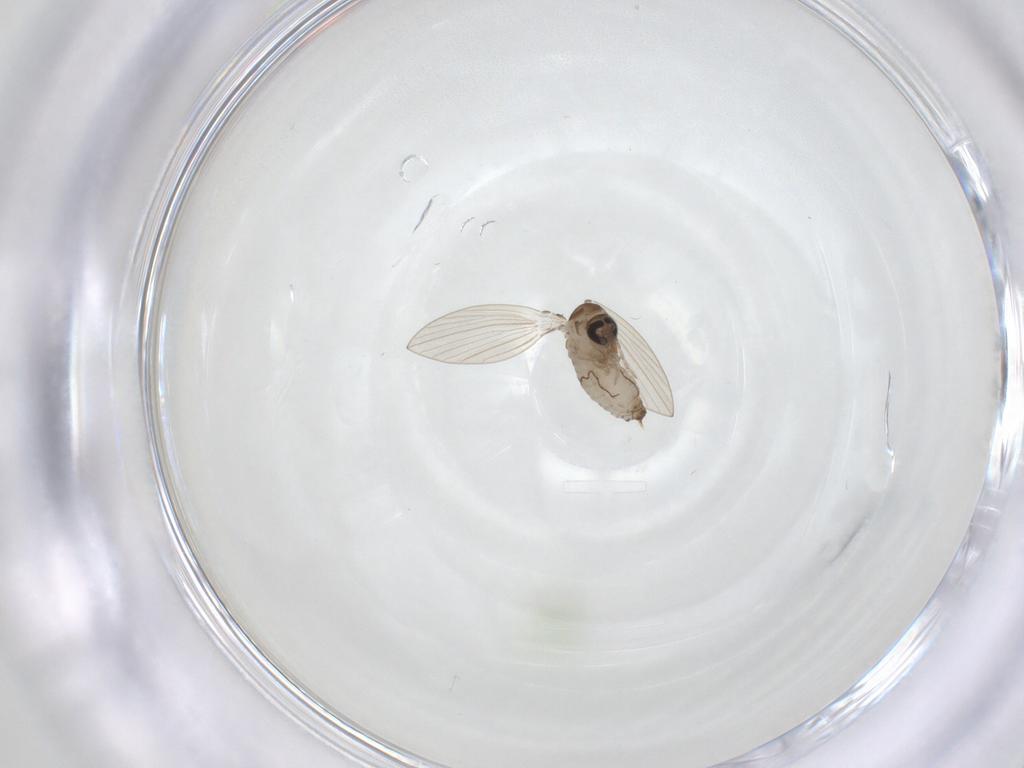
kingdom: Animalia
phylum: Arthropoda
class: Insecta
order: Diptera
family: Psychodidae
